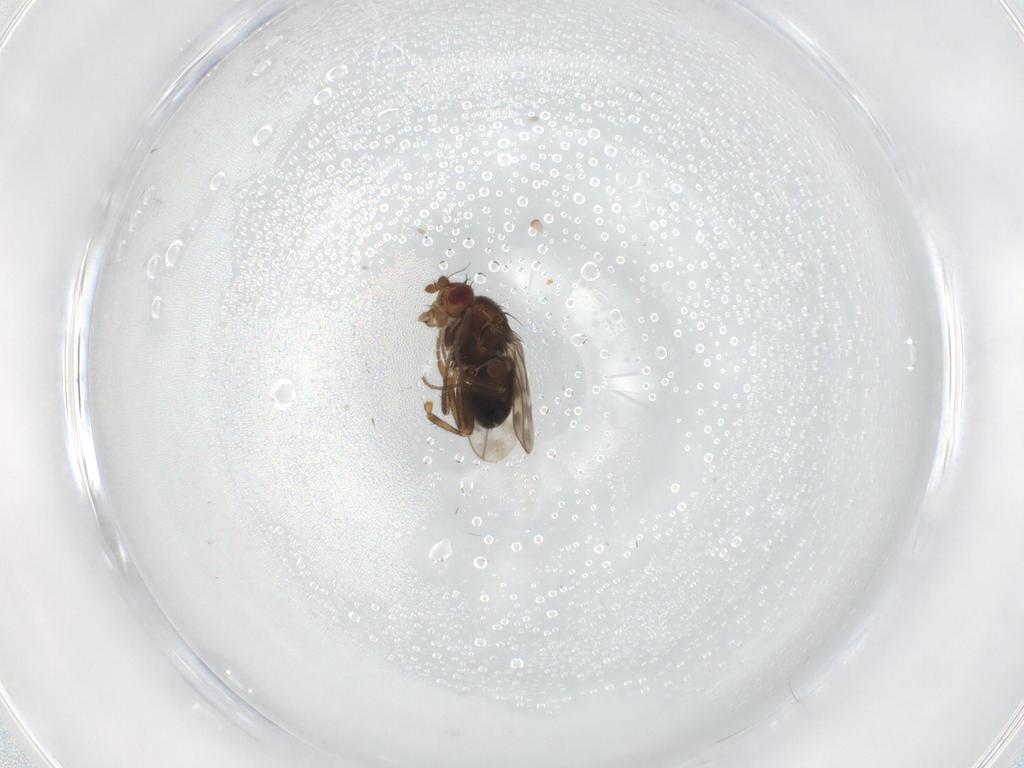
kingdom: Animalia
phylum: Arthropoda
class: Insecta
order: Diptera
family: Sphaeroceridae
